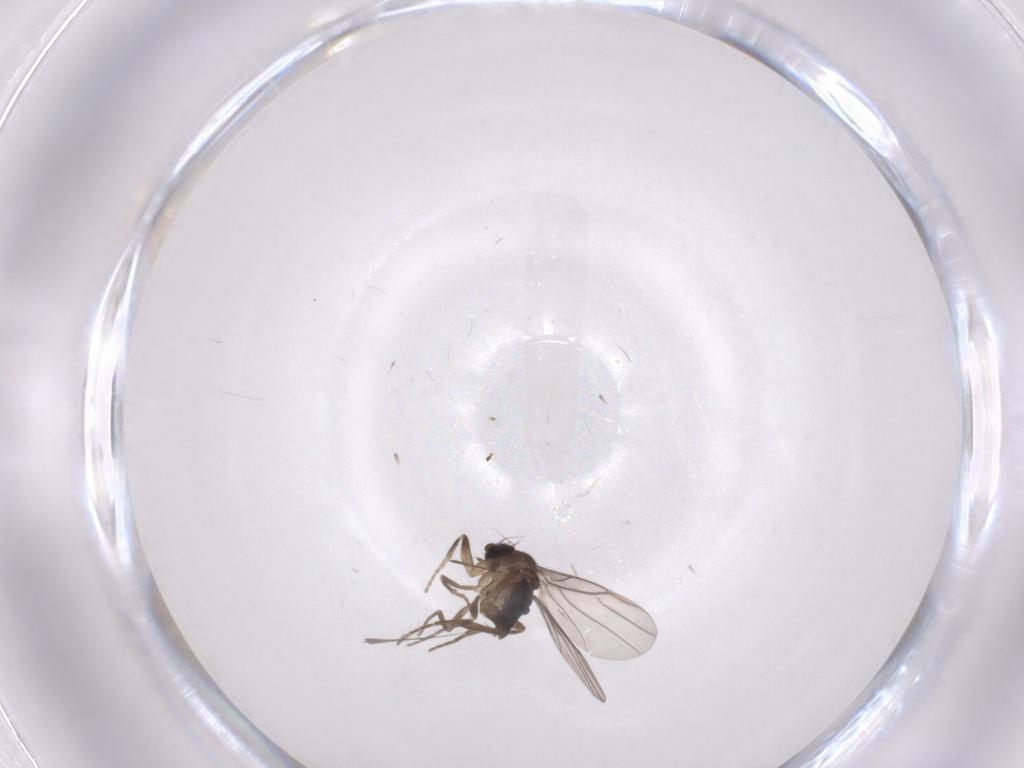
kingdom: Animalia
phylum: Arthropoda
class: Insecta
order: Diptera
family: Phoridae
